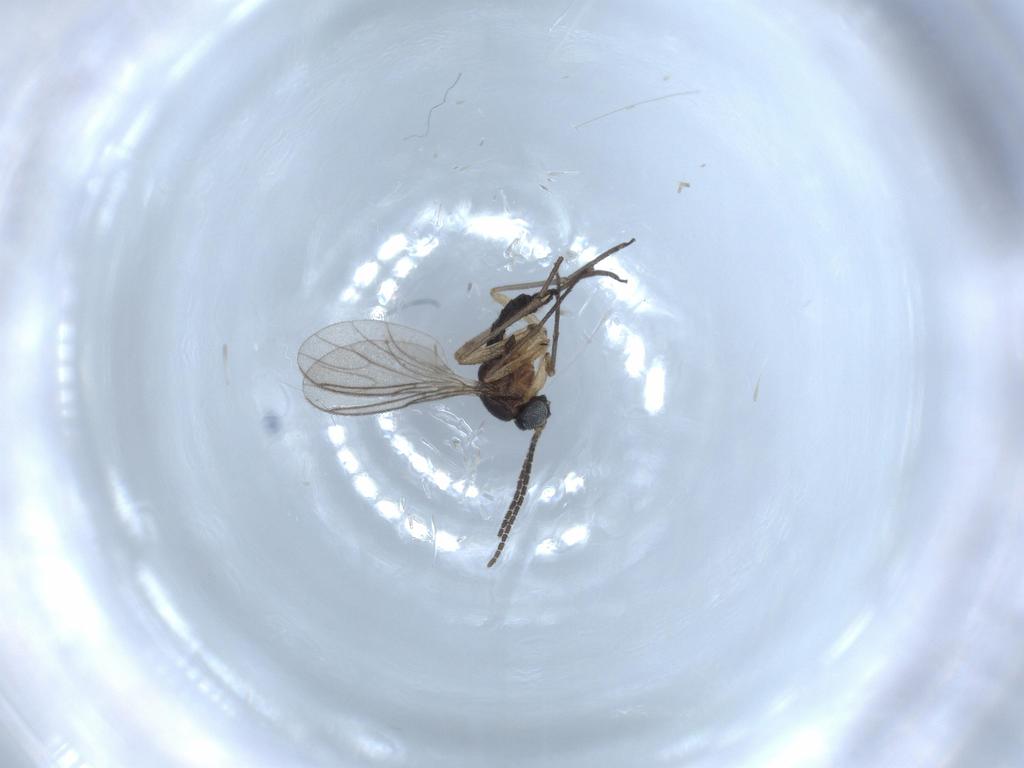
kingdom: Animalia
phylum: Arthropoda
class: Insecta
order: Diptera
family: Sciaridae
